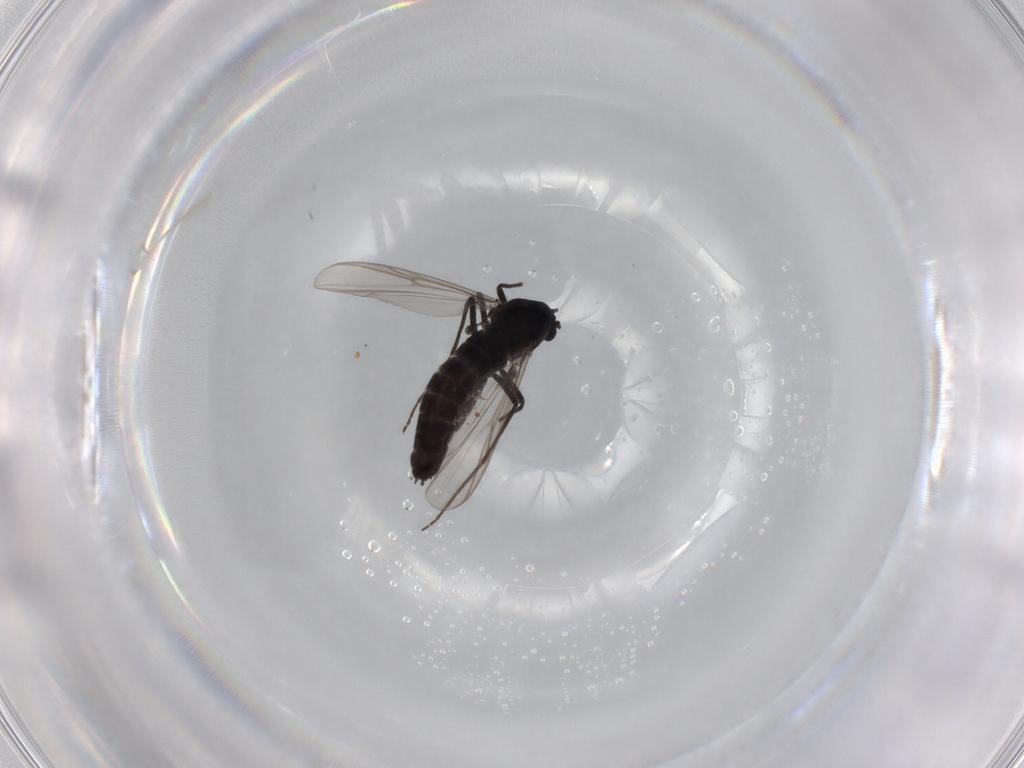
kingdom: Animalia
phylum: Arthropoda
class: Insecta
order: Diptera
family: Chironomidae
